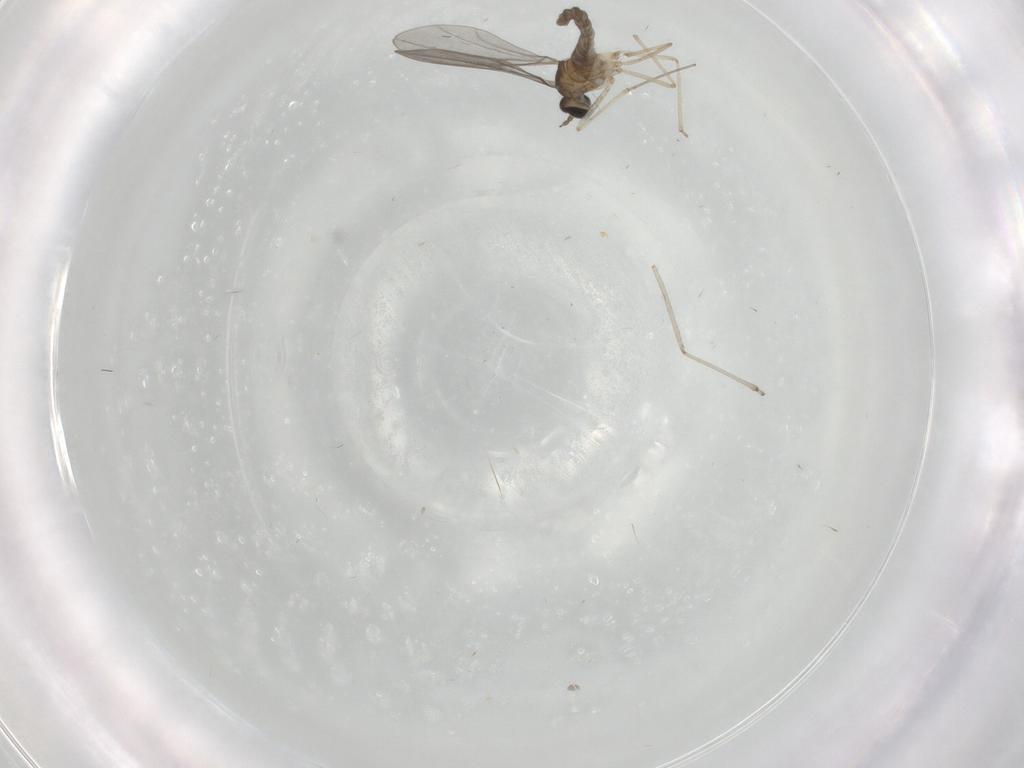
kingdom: Animalia
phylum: Arthropoda
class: Insecta
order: Diptera
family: Cecidomyiidae
